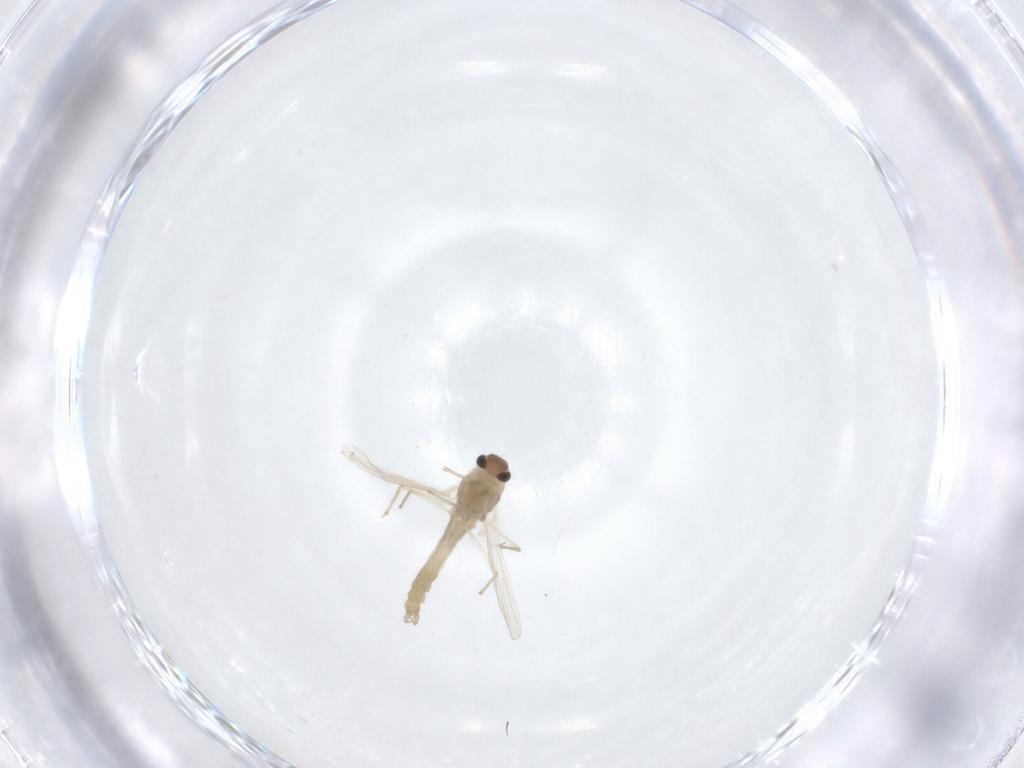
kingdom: Animalia
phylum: Arthropoda
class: Insecta
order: Diptera
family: Chironomidae
